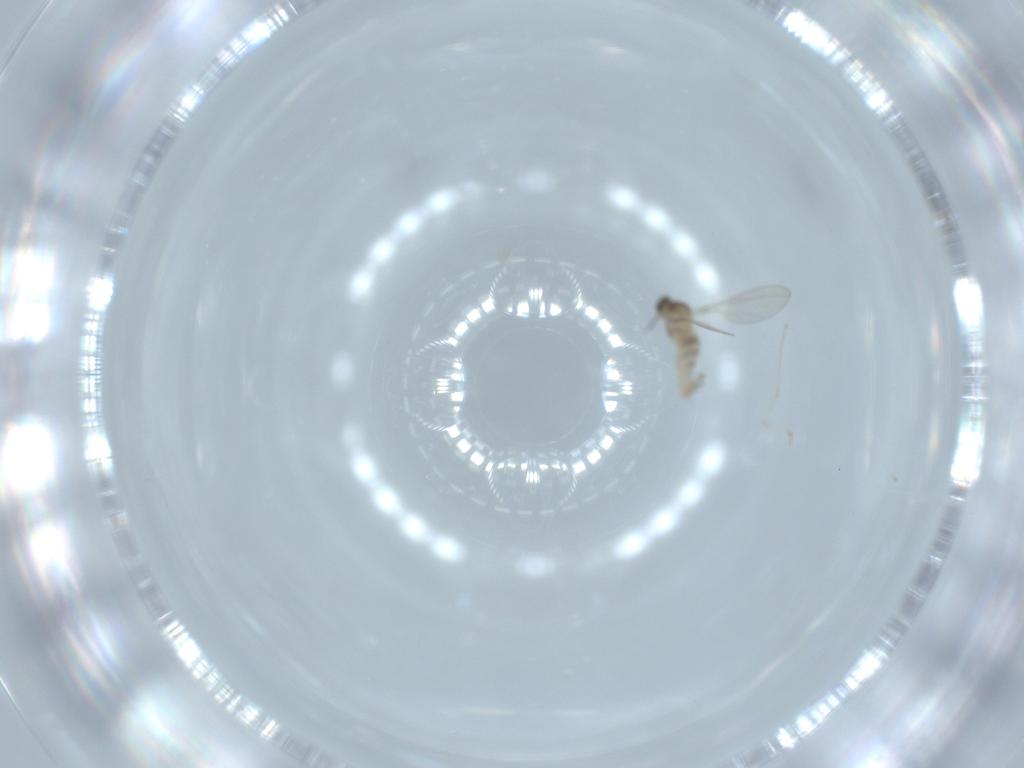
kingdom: Animalia
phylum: Arthropoda
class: Insecta
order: Diptera
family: Cecidomyiidae
